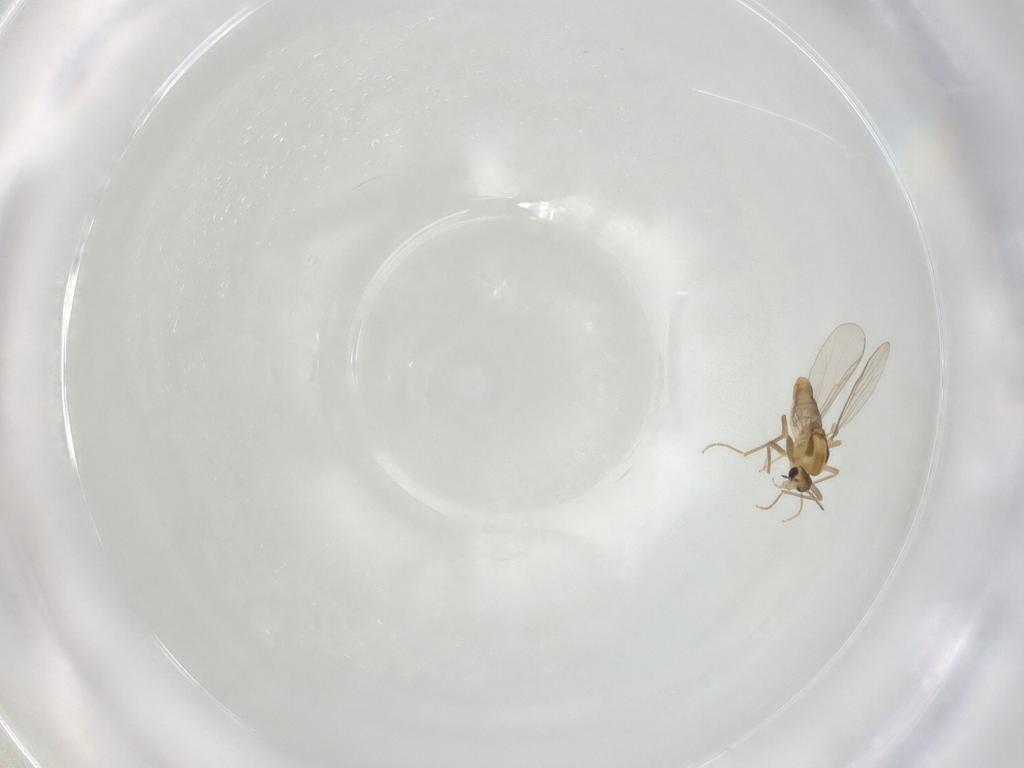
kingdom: Animalia
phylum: Arthropoda
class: Insecta
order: Diptera
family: Chironomidae
